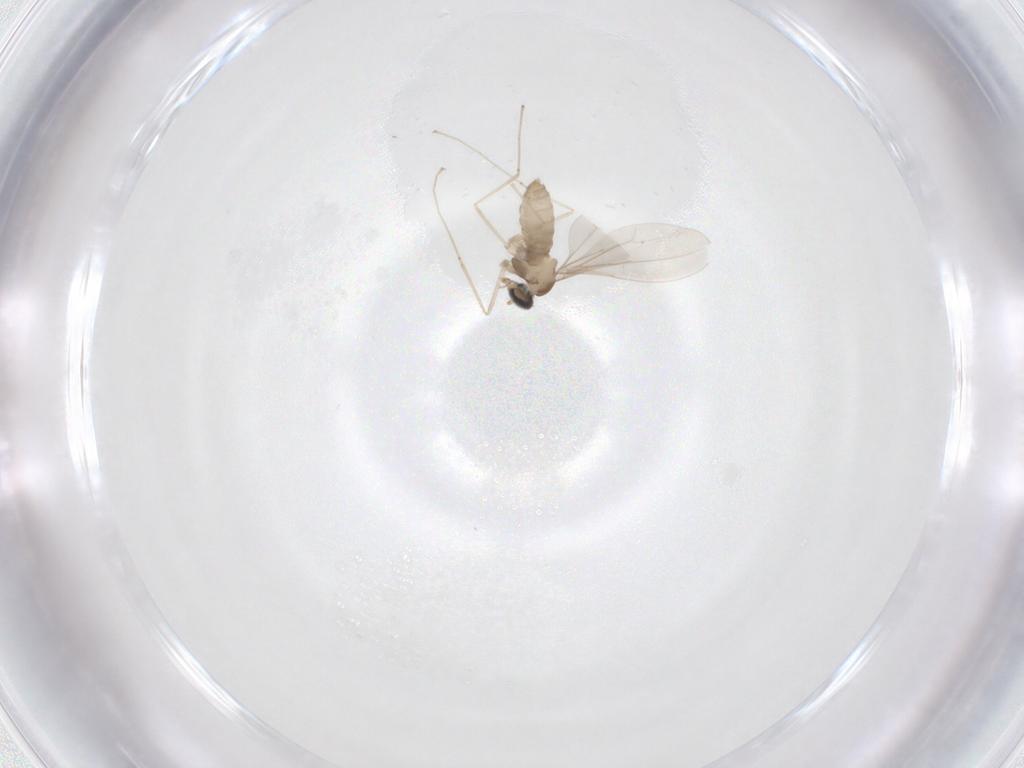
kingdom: Animalia
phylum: Arthropoda
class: Insecta
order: Diptera
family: Cecidomyiidae
